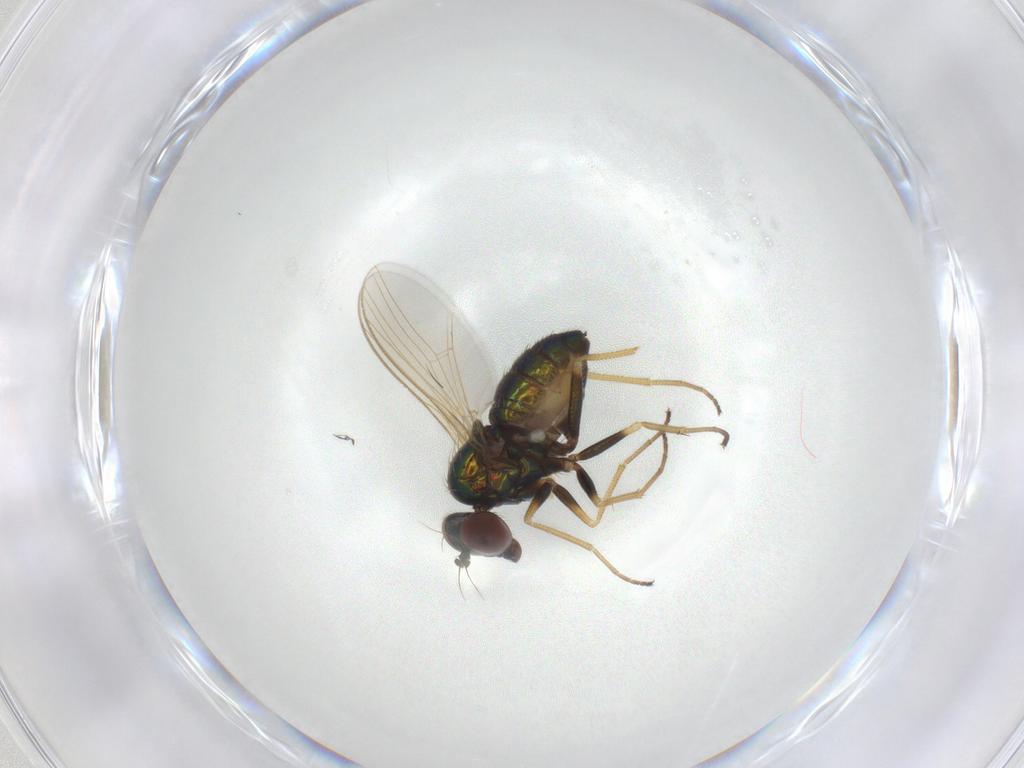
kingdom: Animalia
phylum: Arthropoda
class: Insecta
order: Diptera
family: Dolichopodidae
